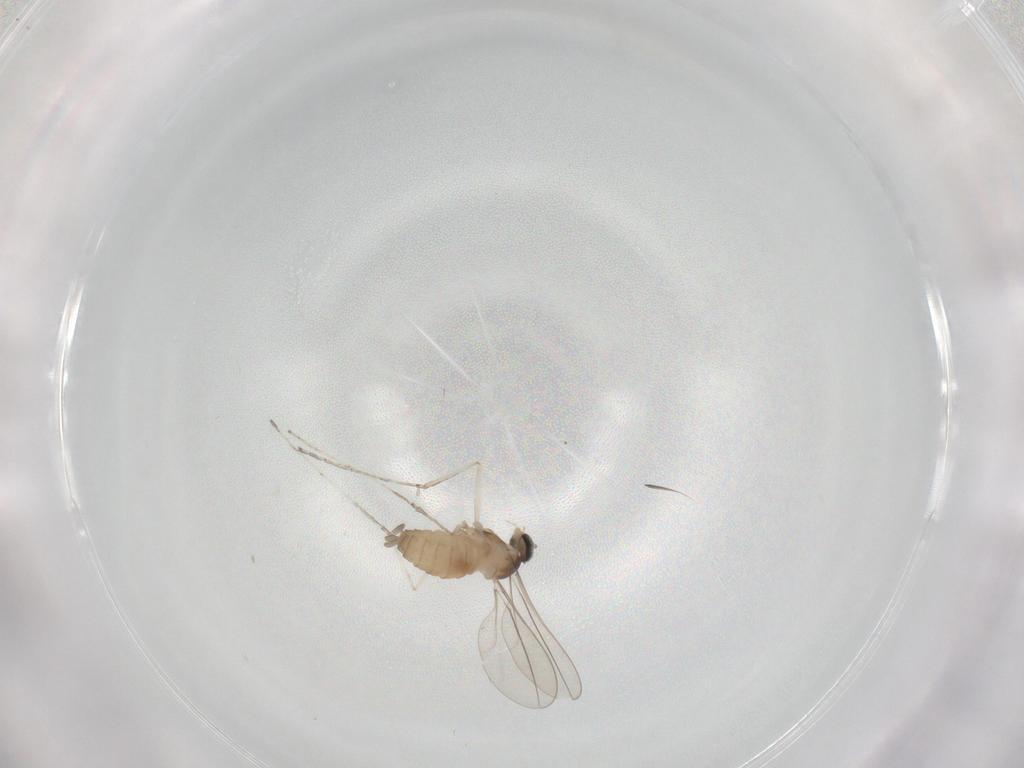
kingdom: Animalia
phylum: Arthropoda
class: Insecta
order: Diptera
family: Cecidomyiidae
